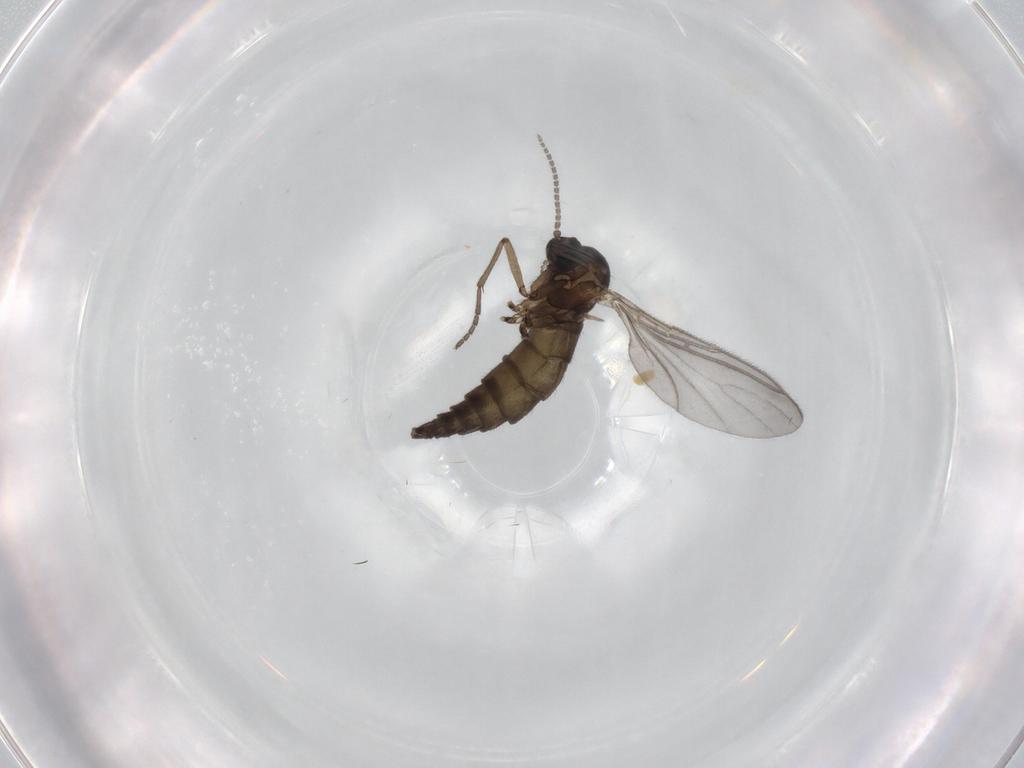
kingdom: Animalia
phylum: Arthropoda
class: Insecta
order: Diptera
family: Sciaridae
